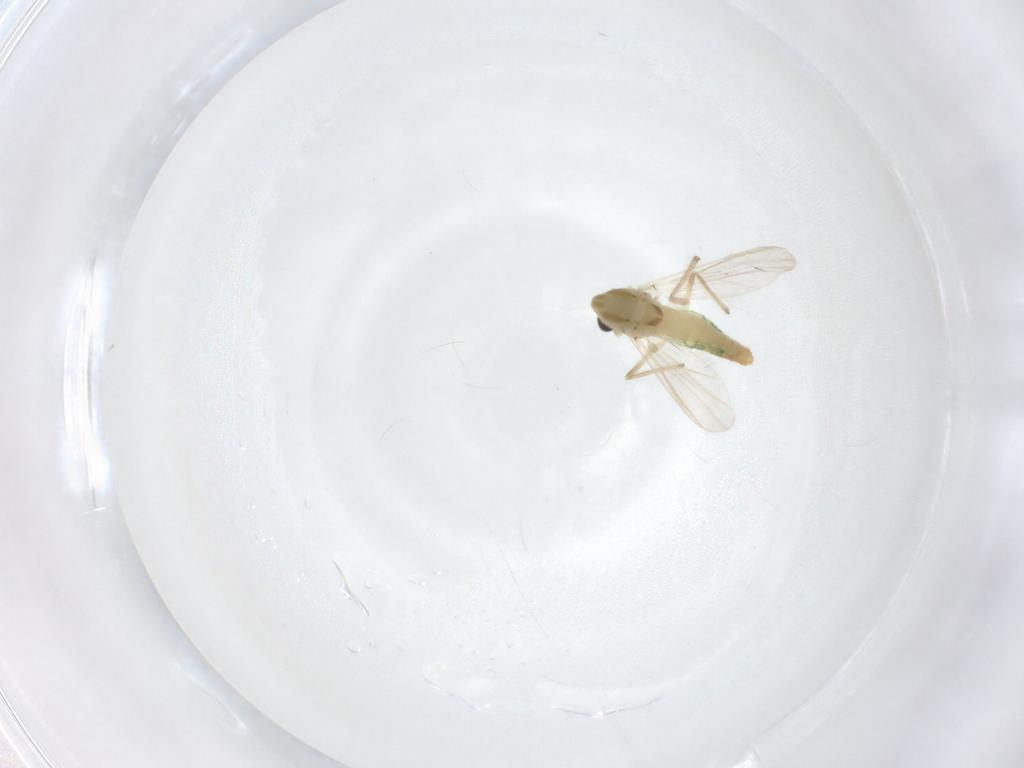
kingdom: Animalia
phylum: Arthropoda
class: Insecta
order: Diptera
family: Chironomidae
